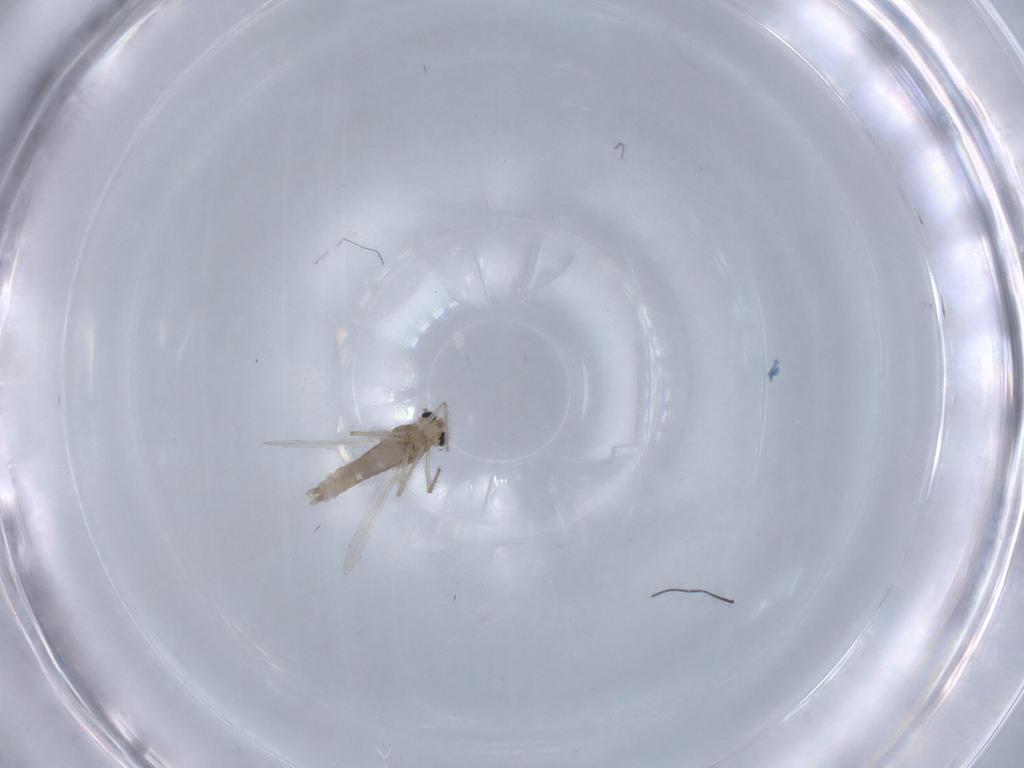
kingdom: Animalia
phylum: Arthropoda
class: Insecta
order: Diptera
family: Chironomidae
